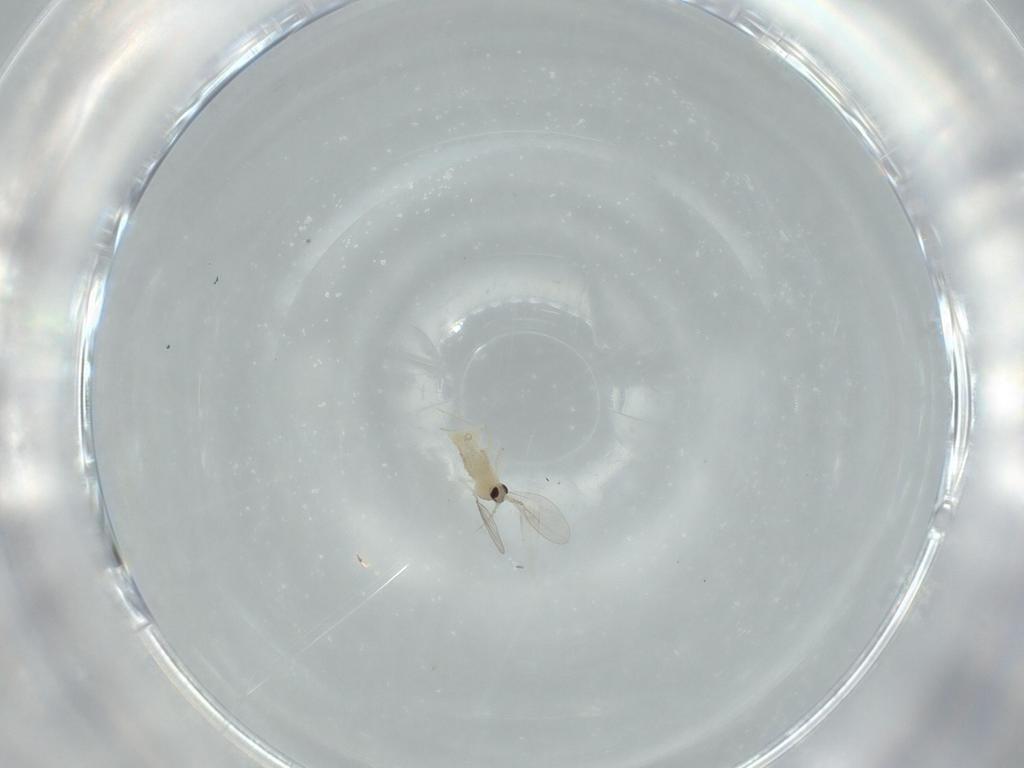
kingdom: Animalia
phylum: Arthropoda
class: Insecta
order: Diptera
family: Cecidomyiidae
